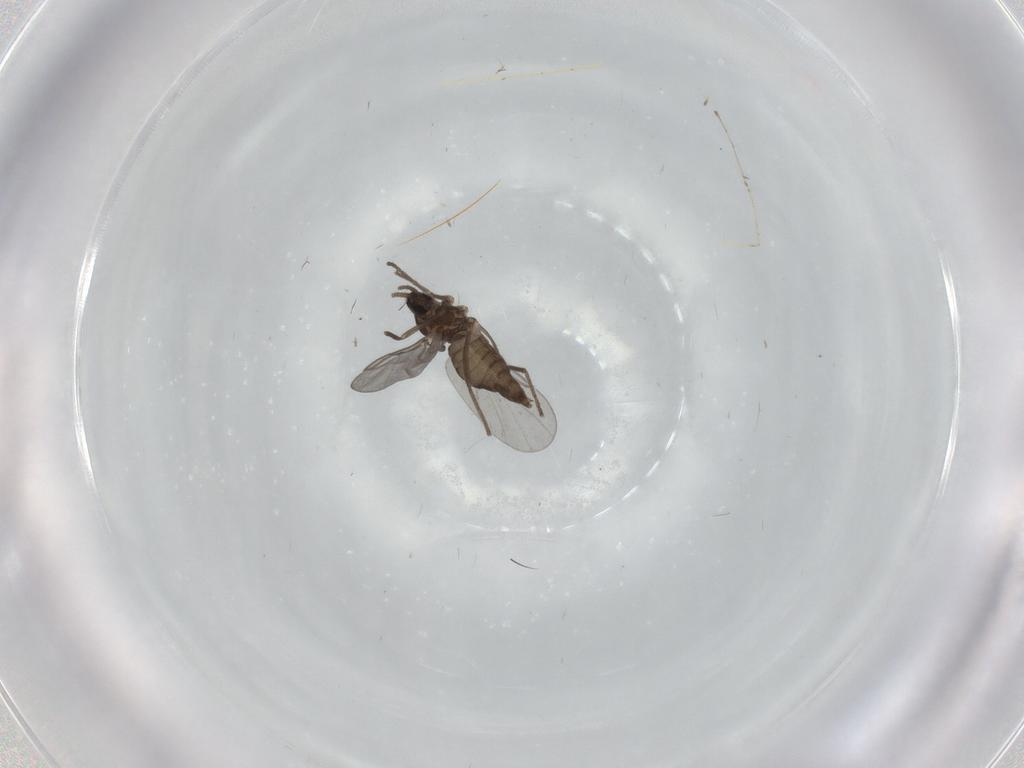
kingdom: Animalia
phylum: Arthropoda
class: Insecta
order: Diptera
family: Cecidomyiidae
